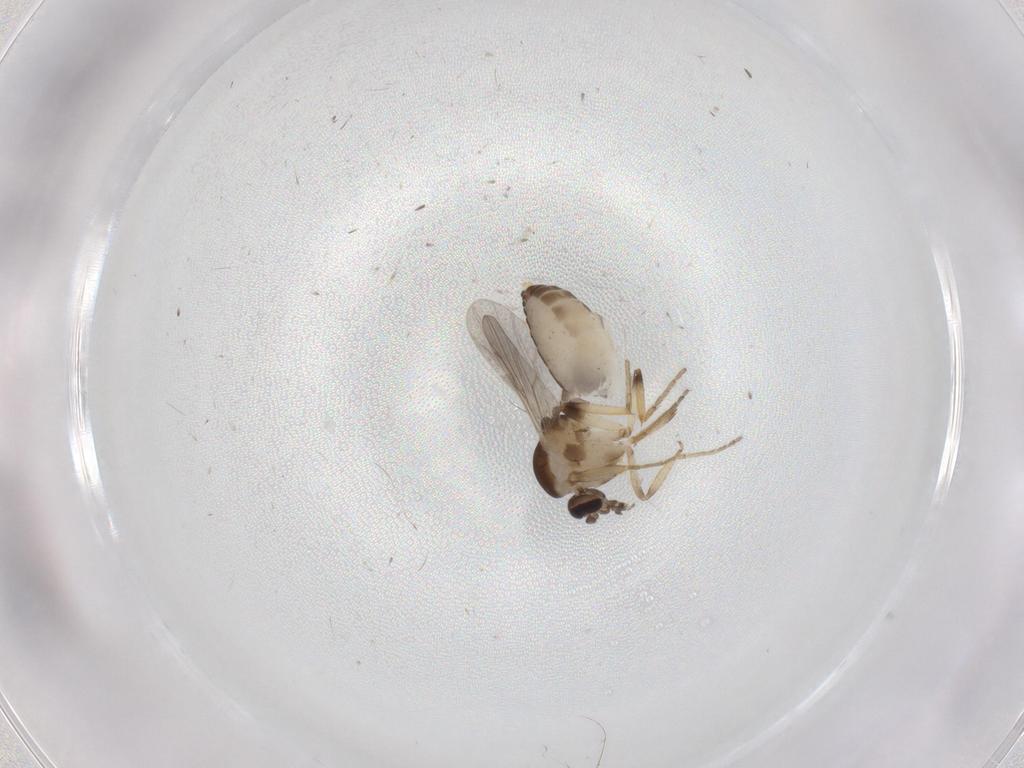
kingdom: Animalia
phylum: Arthropoda
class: Insecta
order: Diptera
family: Ceratopogonidae
